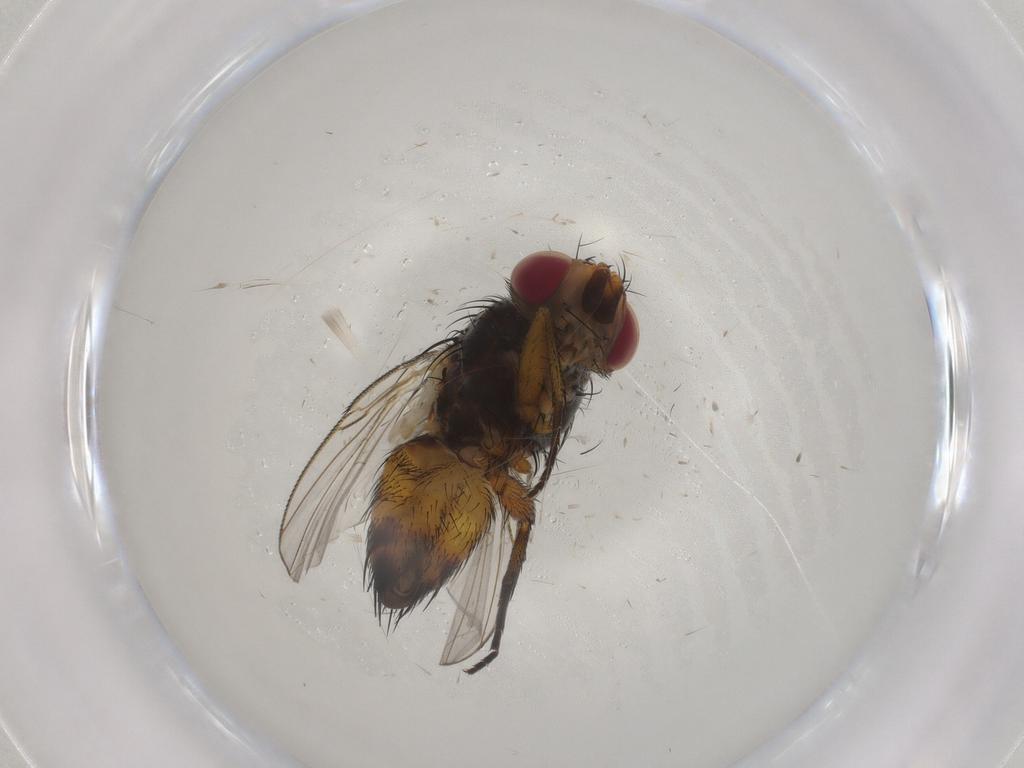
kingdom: Animalia
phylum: Arthropoda
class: Insecta
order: Diptera
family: Tachinidae
